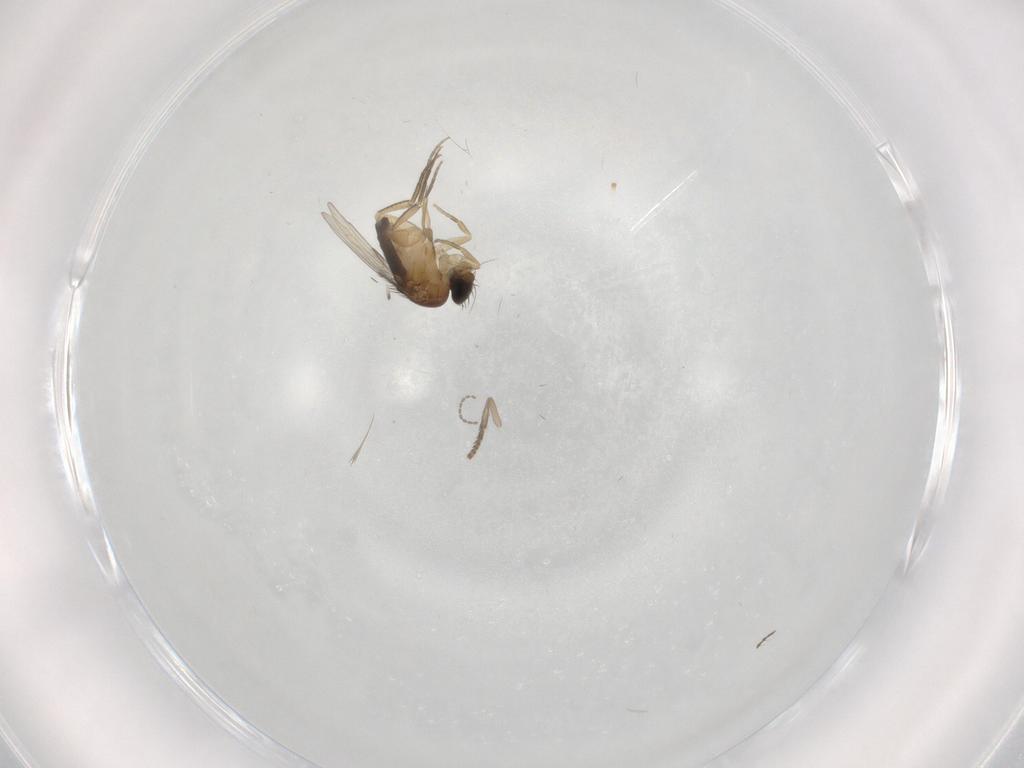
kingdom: Animalia
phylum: Arthropoda
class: Insecta
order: Diptera
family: Psychodidae
